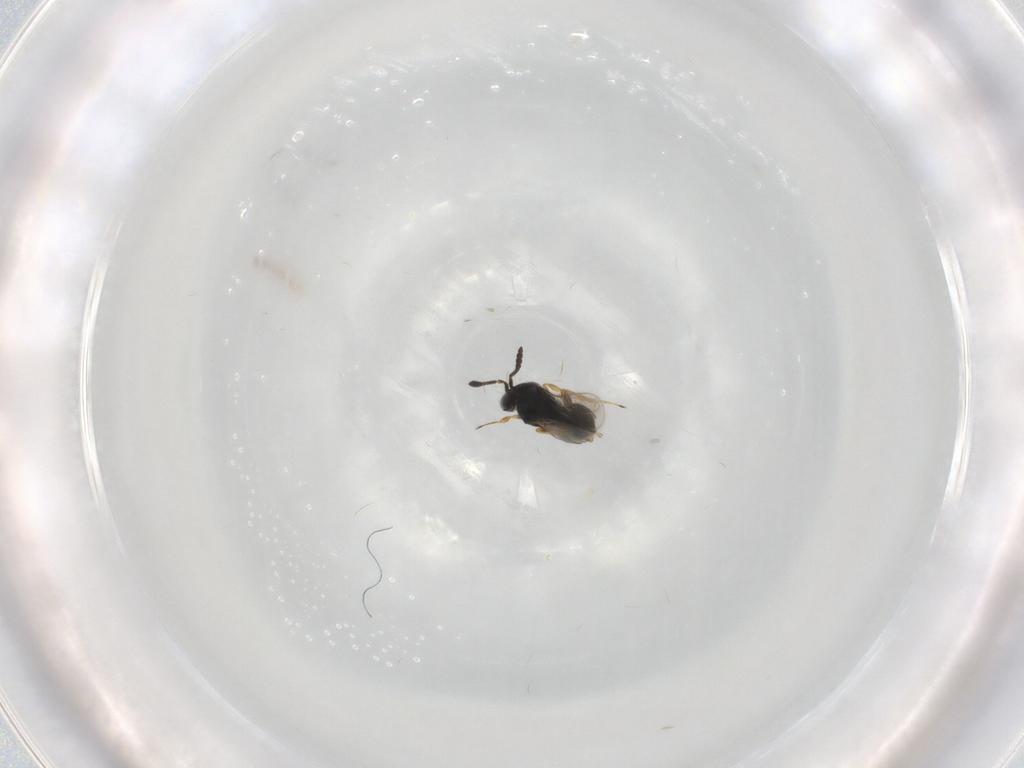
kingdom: Animalia
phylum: Arthropoda
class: Insecta
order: Hymenoptera
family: Scelionidae
